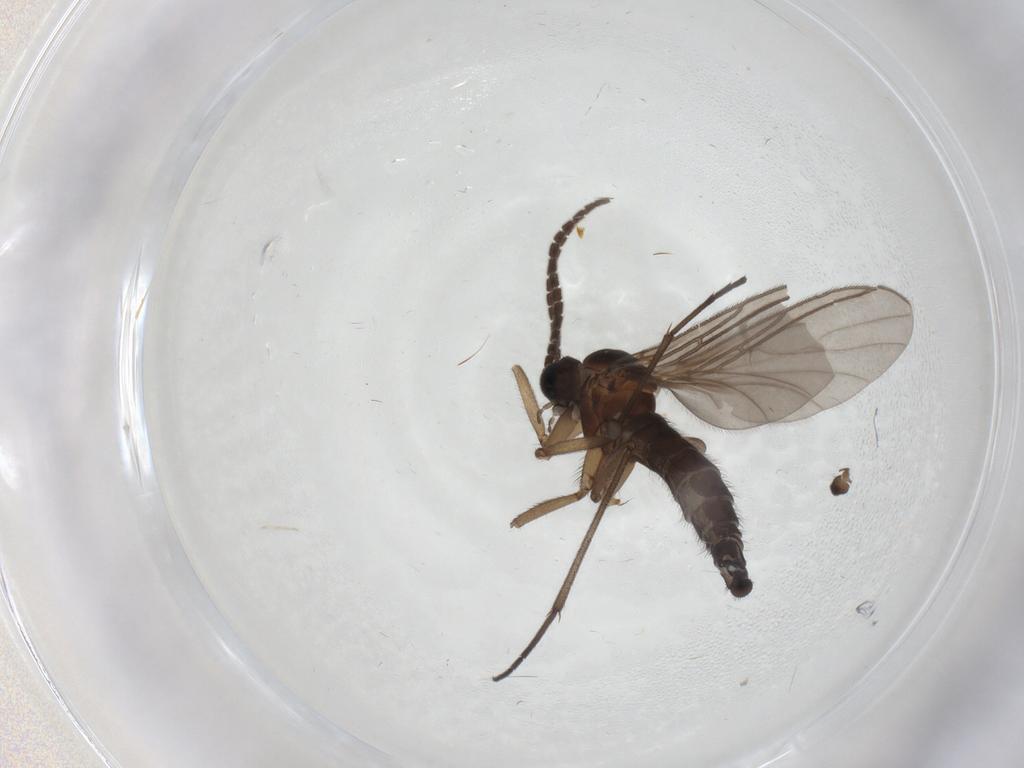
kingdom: Animalia
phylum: Arthropoda
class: Insecta
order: Diptera
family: Sciaridae
